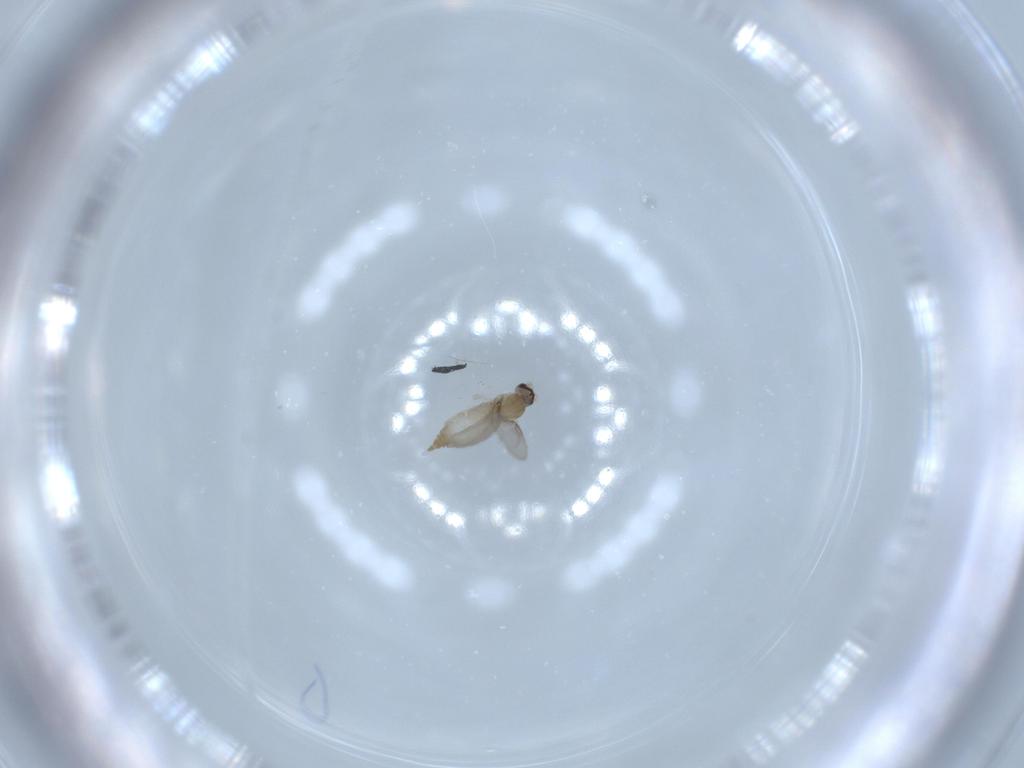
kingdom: Animalia
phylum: Arthropoda
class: Insecta
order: Diptera
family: Cecidomyiidae
